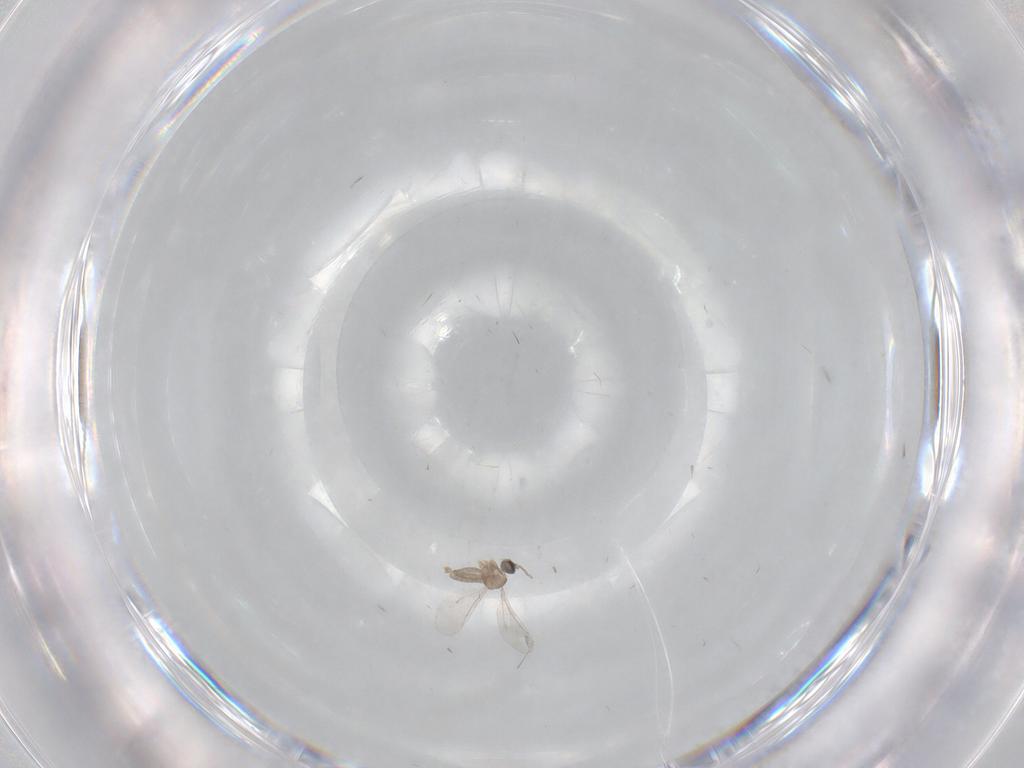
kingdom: Animalia
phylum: Arthropoda
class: Insecta
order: Diptera
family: Cecidomyiidae
